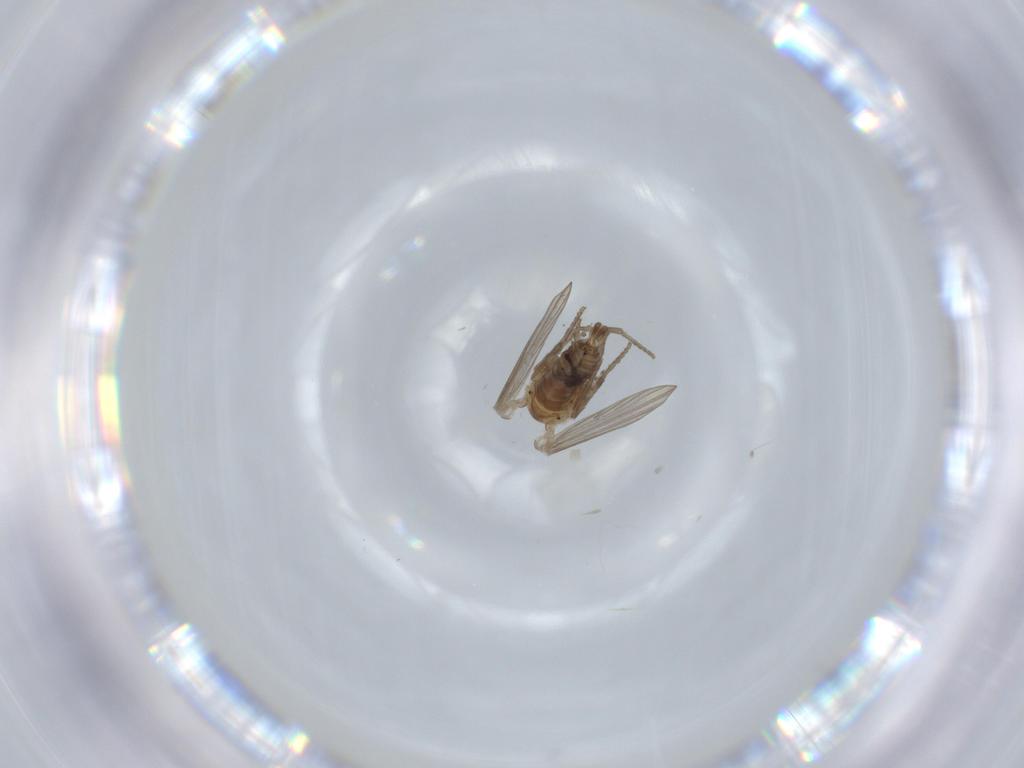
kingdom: Animalia
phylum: Arthropoda
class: Insecta
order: Diptera
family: Psychodidae
